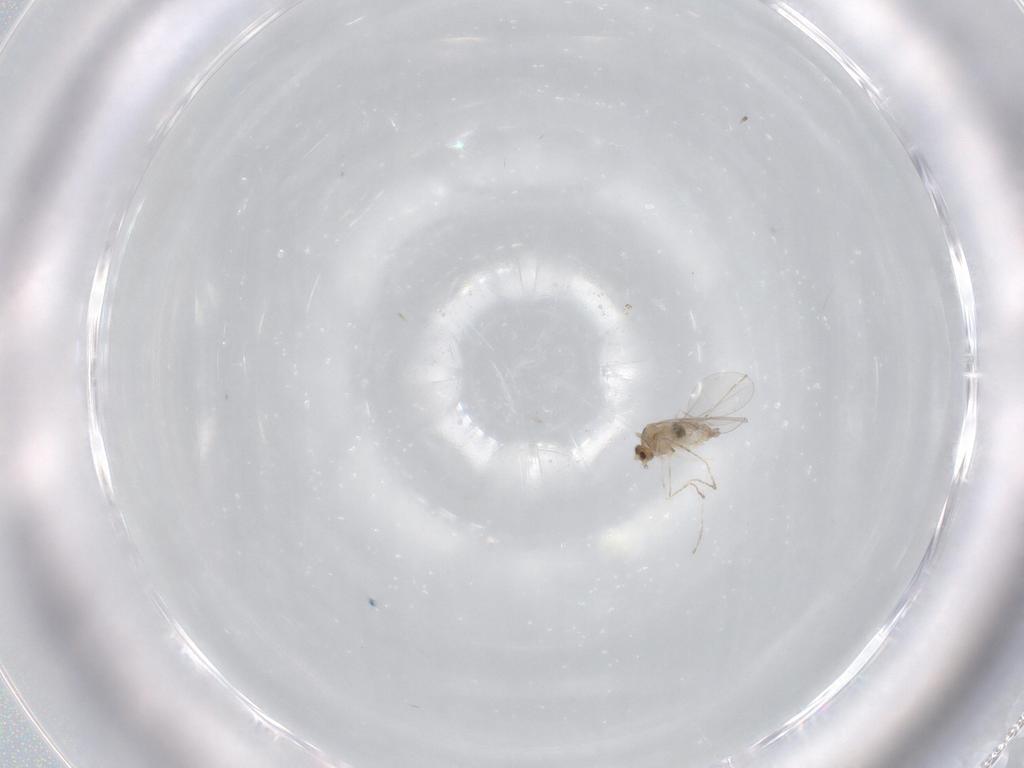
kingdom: Animalia
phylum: Arthropoda
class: Insecta
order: Diptera
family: Cecidomyiidae
